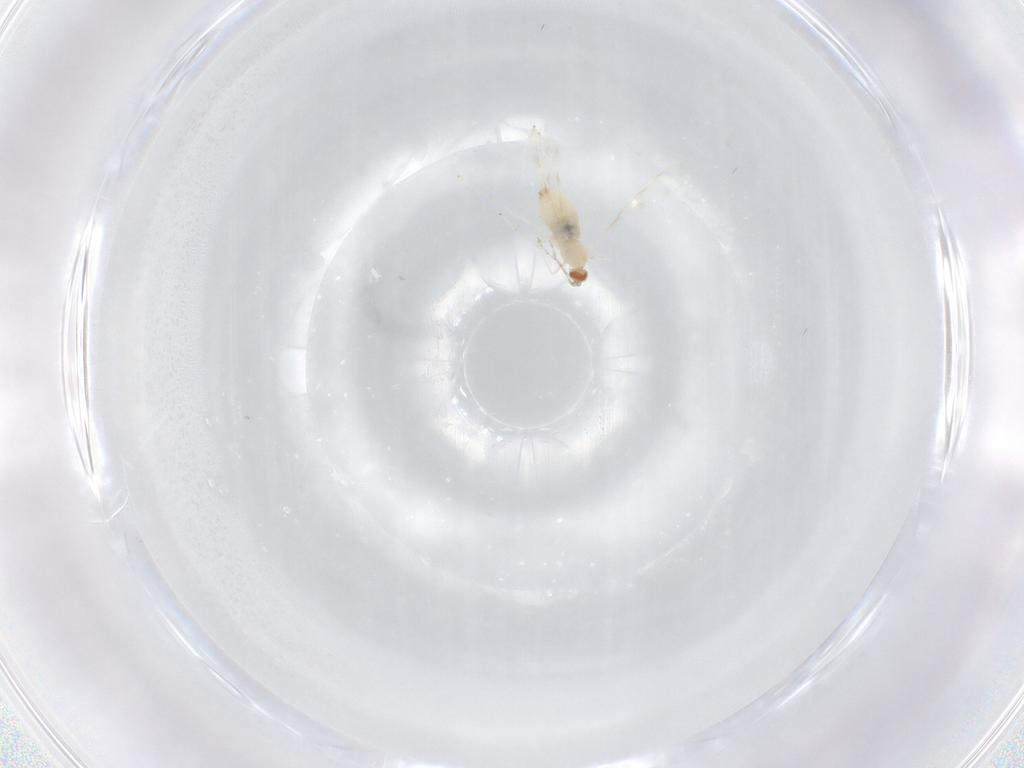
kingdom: Animalia
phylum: Arthropoda
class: Insecta
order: Diptera
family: Cecidomyiidae
